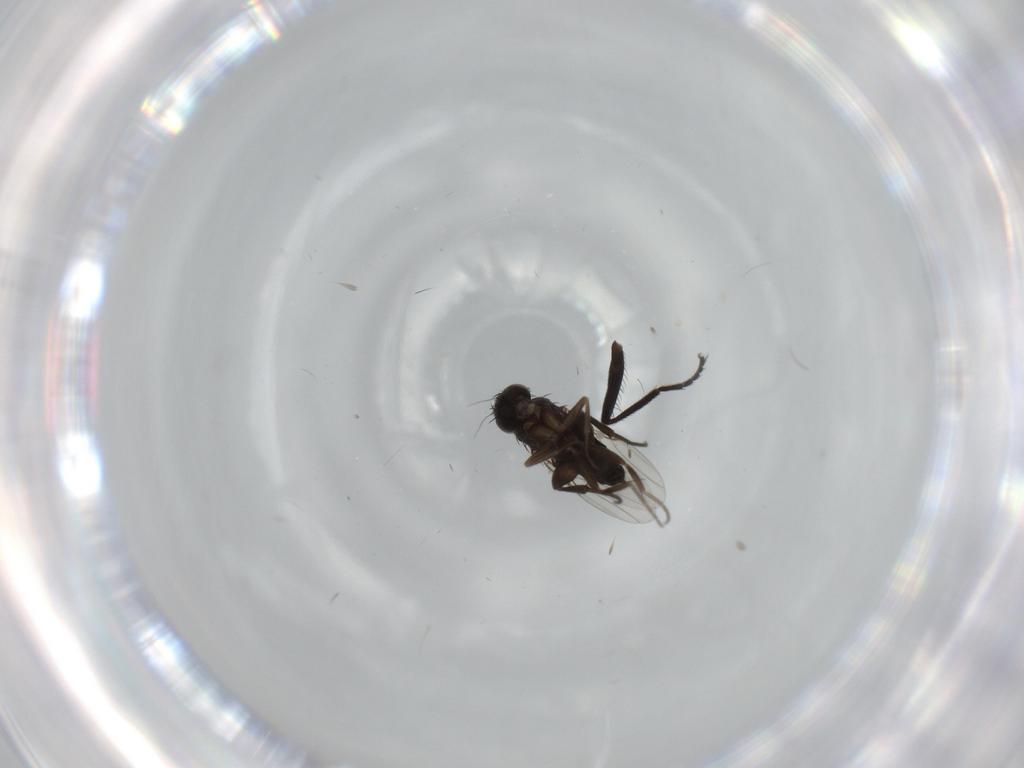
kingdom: Animalia
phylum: Arthropoda
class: Insecta
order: Diptera
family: Phoridae
